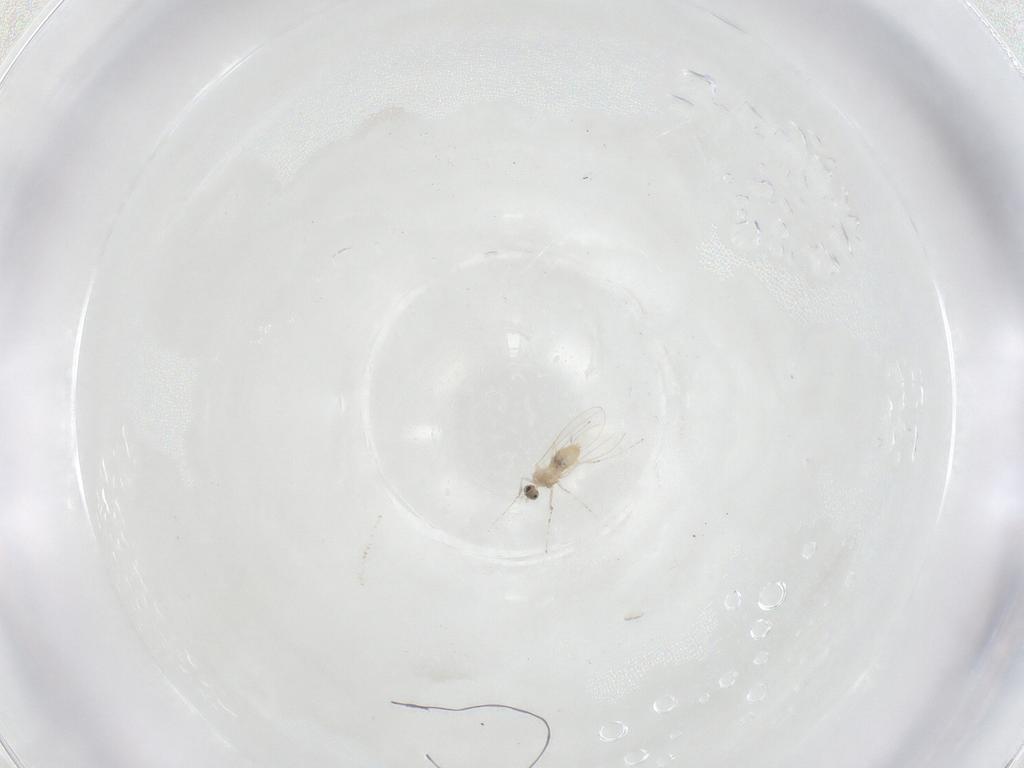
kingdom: Animalia
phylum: Arthropoda
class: Insecta
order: Diptera
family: Cecidomyiidae
